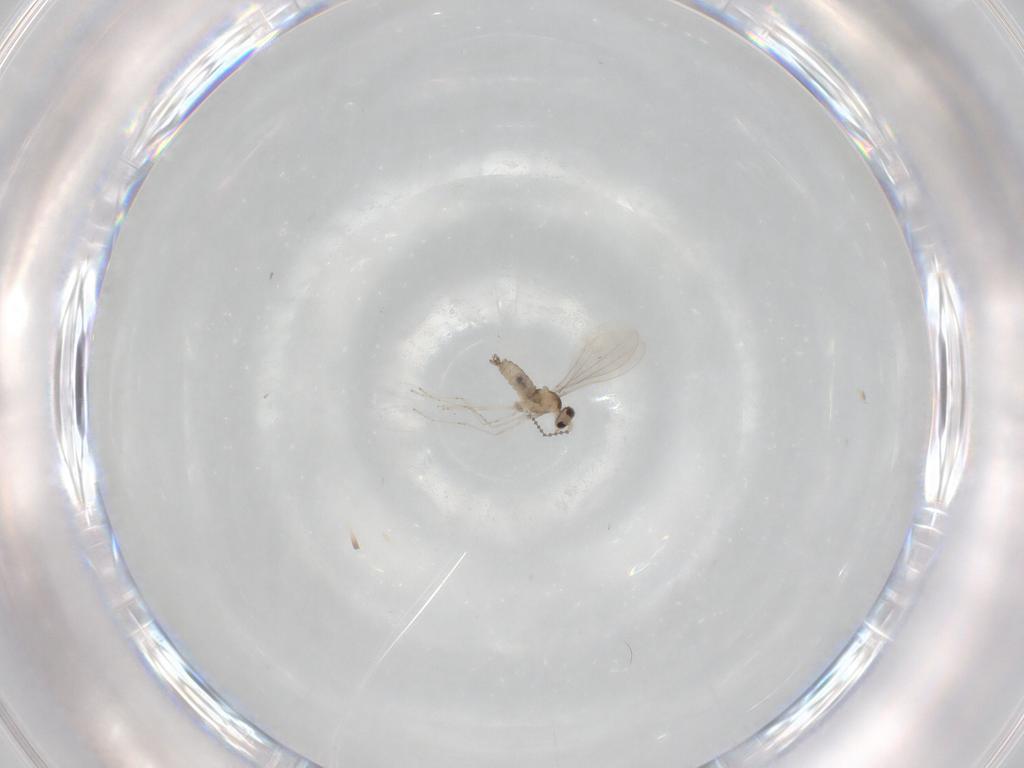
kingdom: Animalia
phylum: Arthropoda
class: Insecta
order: Diptera
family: Cecidomyiidae
